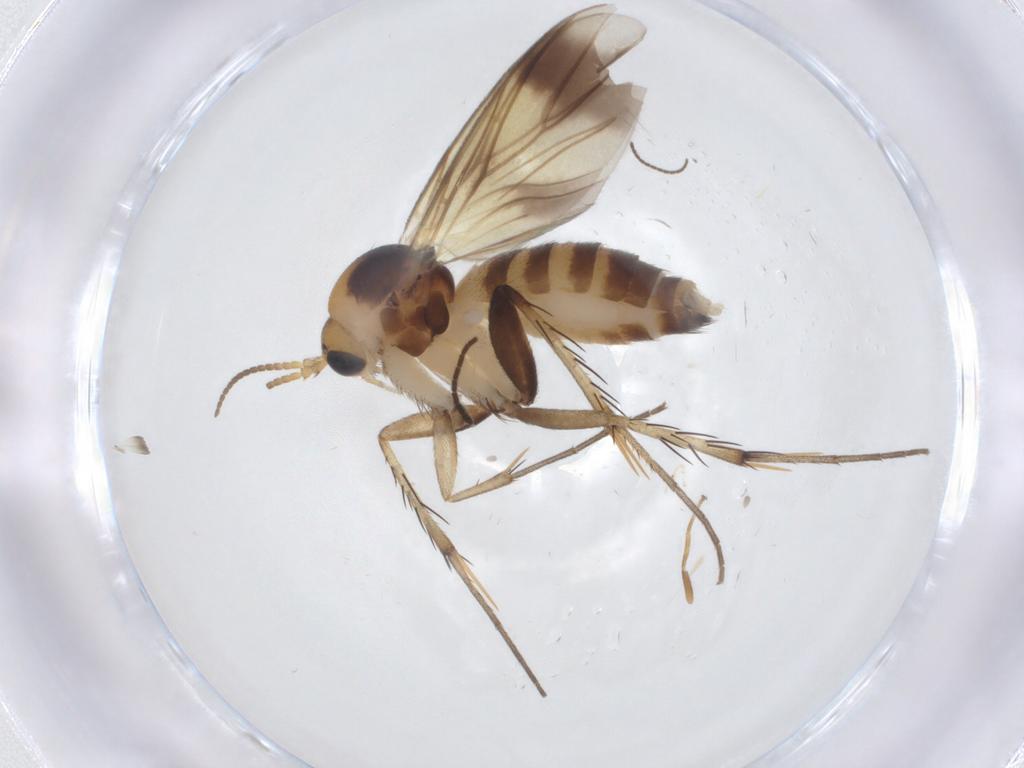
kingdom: Animalia
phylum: Arthropoda
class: Insecta
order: Diptera
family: Mycetophilidae
